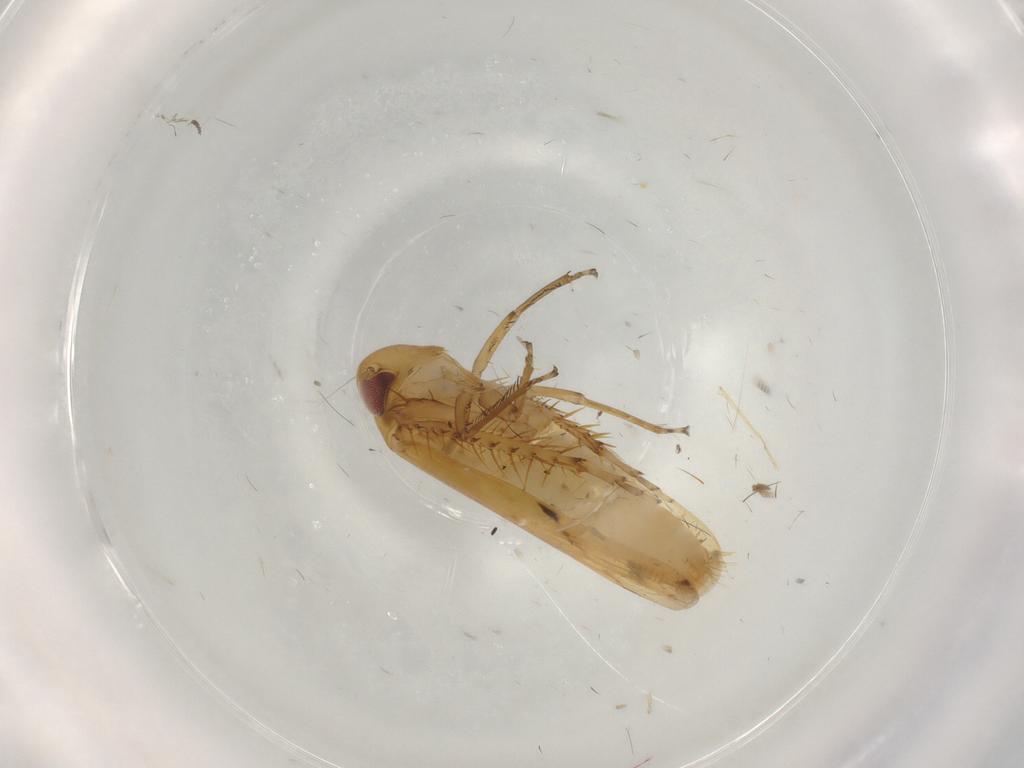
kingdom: Animalia
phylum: Arthropoda
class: Insecta
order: Hemiptera
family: Cicadellidae
